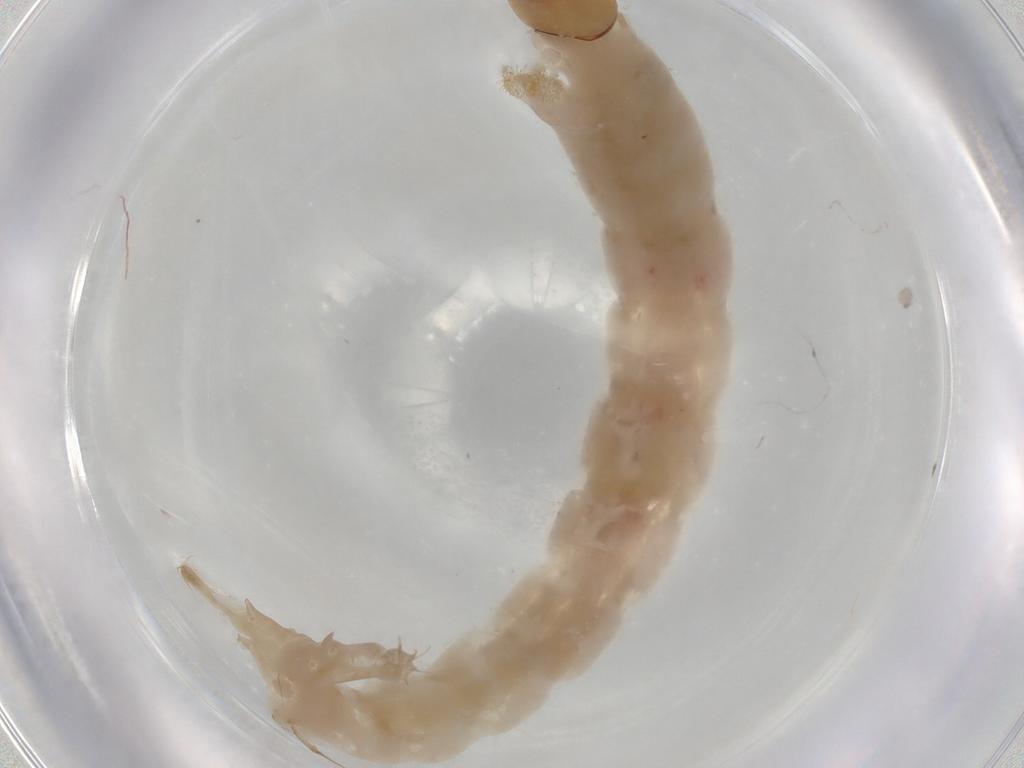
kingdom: Animalia
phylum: Arthropoda
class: Insecta
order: Diptera
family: Chironomidae
